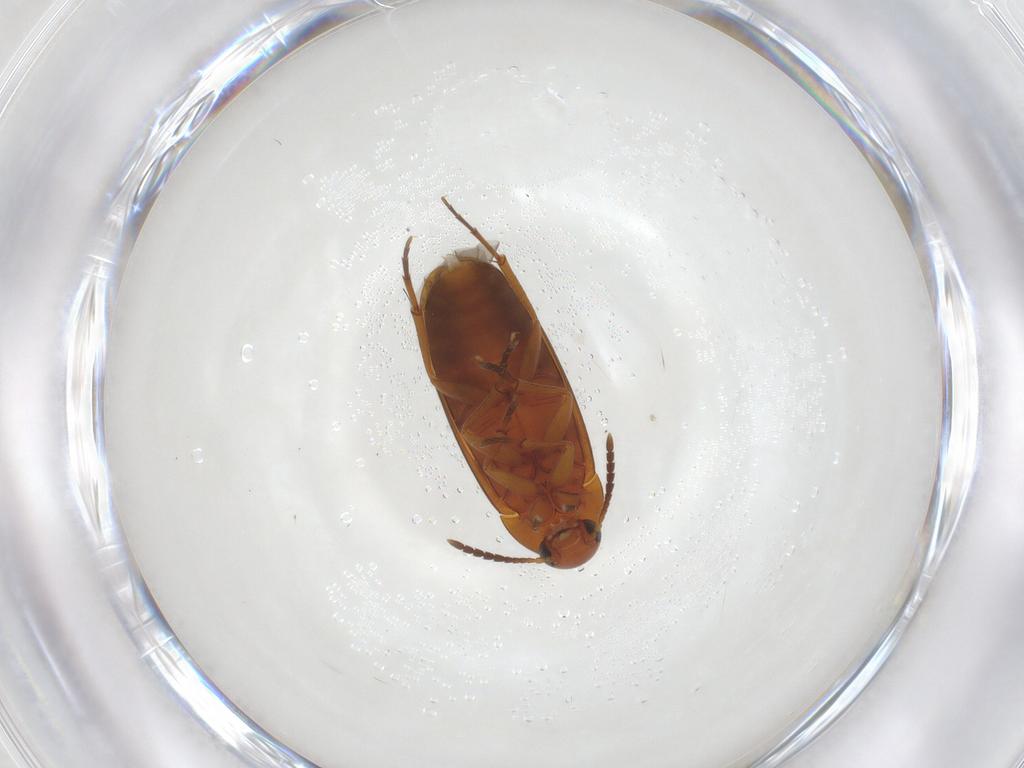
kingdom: Animalia
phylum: Arthropoda
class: Insecta
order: Coleoptera
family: Scraptiidae
